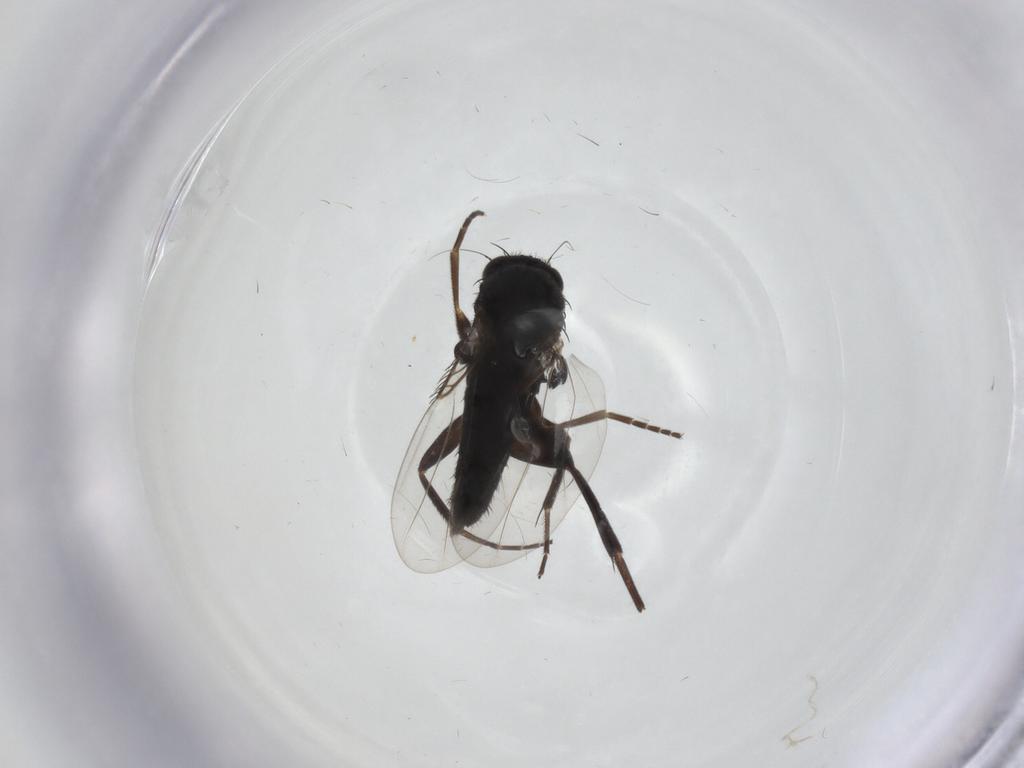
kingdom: Animalia
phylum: Arthropoda
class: Insecta
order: Diptera
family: Phoridae
